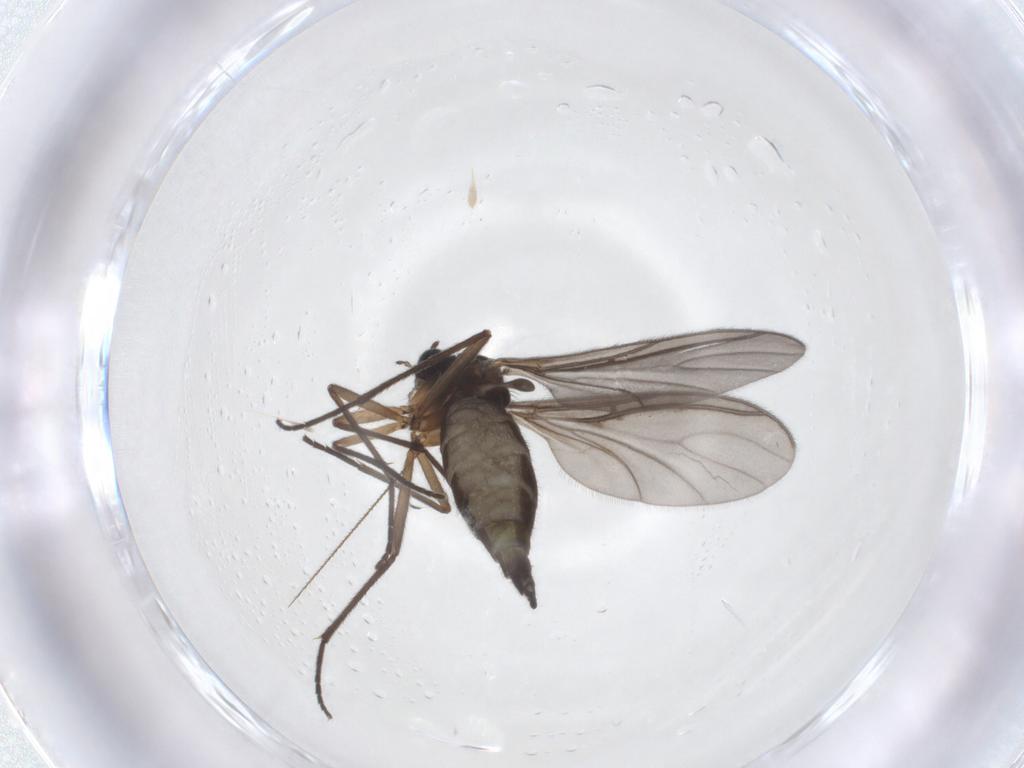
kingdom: Animalia
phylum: Arthropoda
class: Insecta
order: Diptera
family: Sciaridae
